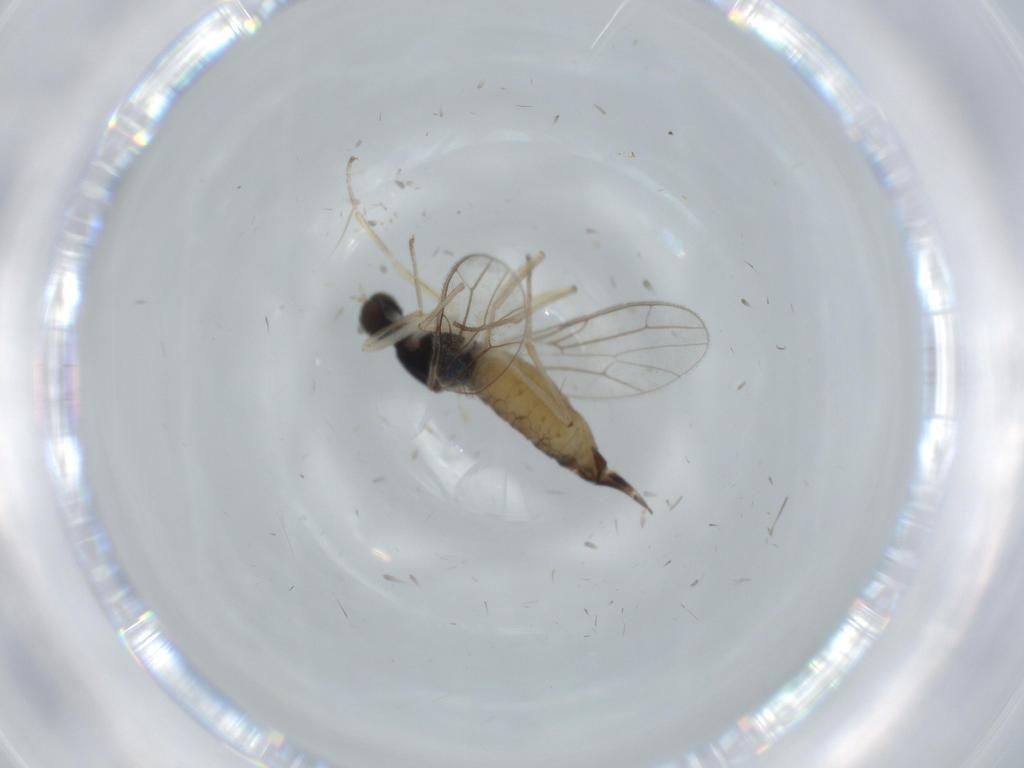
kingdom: Animalia
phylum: Arthropoda
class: Insecta
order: Diptera
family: Empididae
